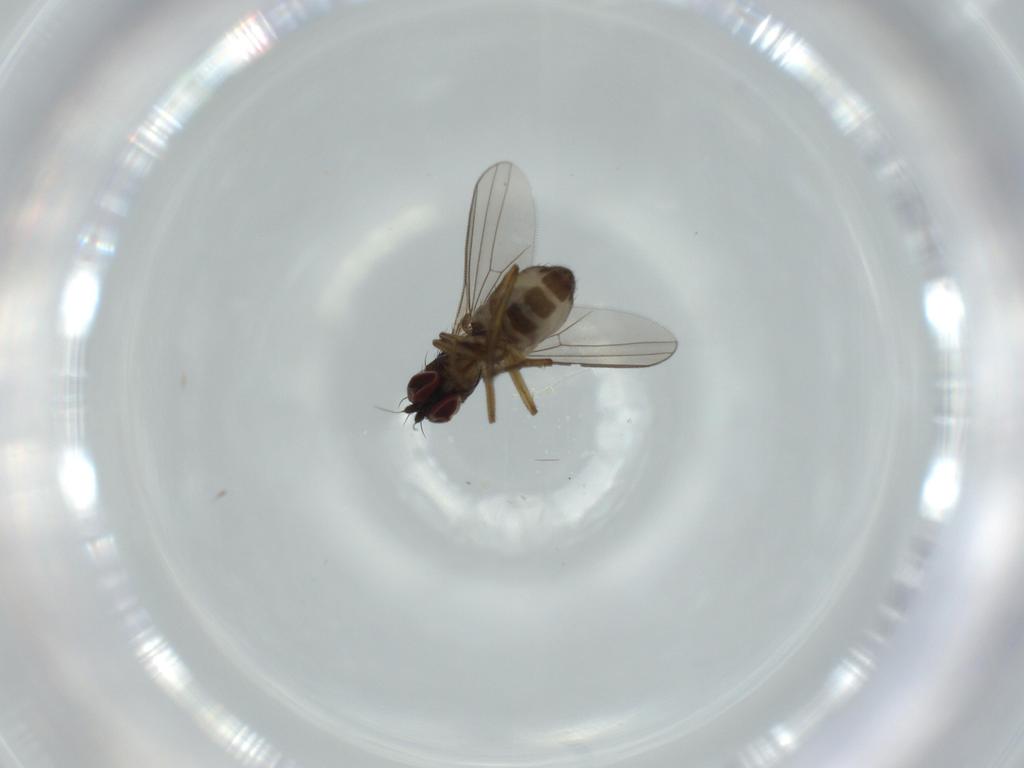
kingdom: Animalia
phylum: Arthropoda
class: Insecta
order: Diptera
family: Dolichopodidae
